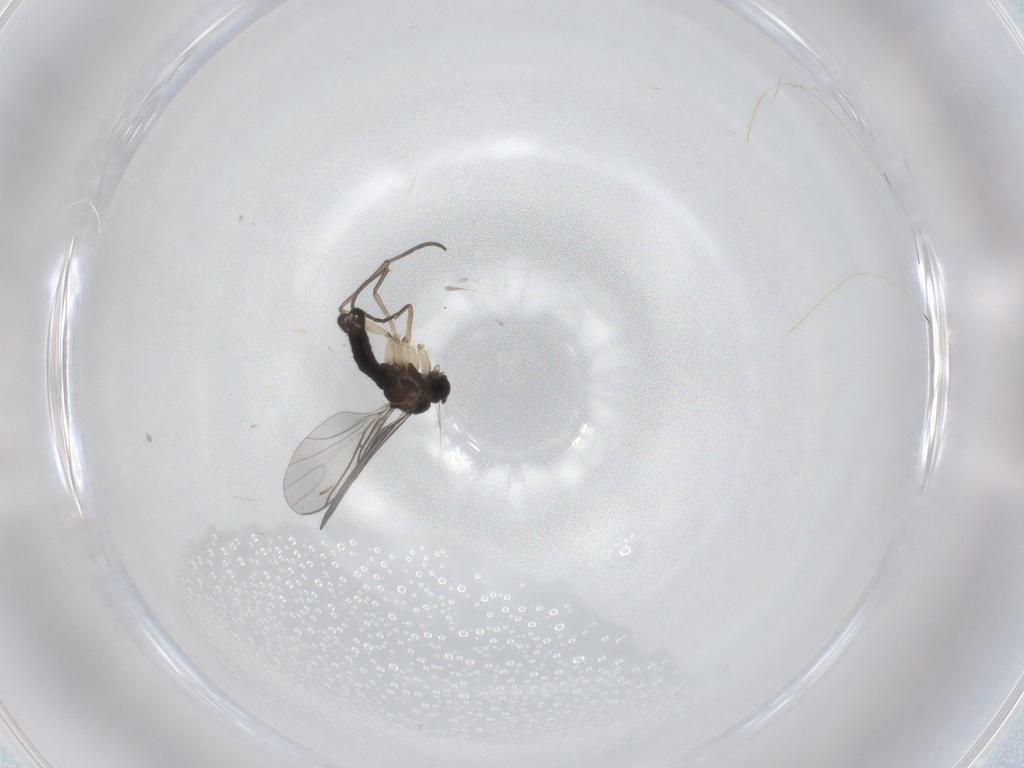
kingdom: Animalia
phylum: Arthropoda
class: Insecta
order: Diptera
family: Sciaridae
